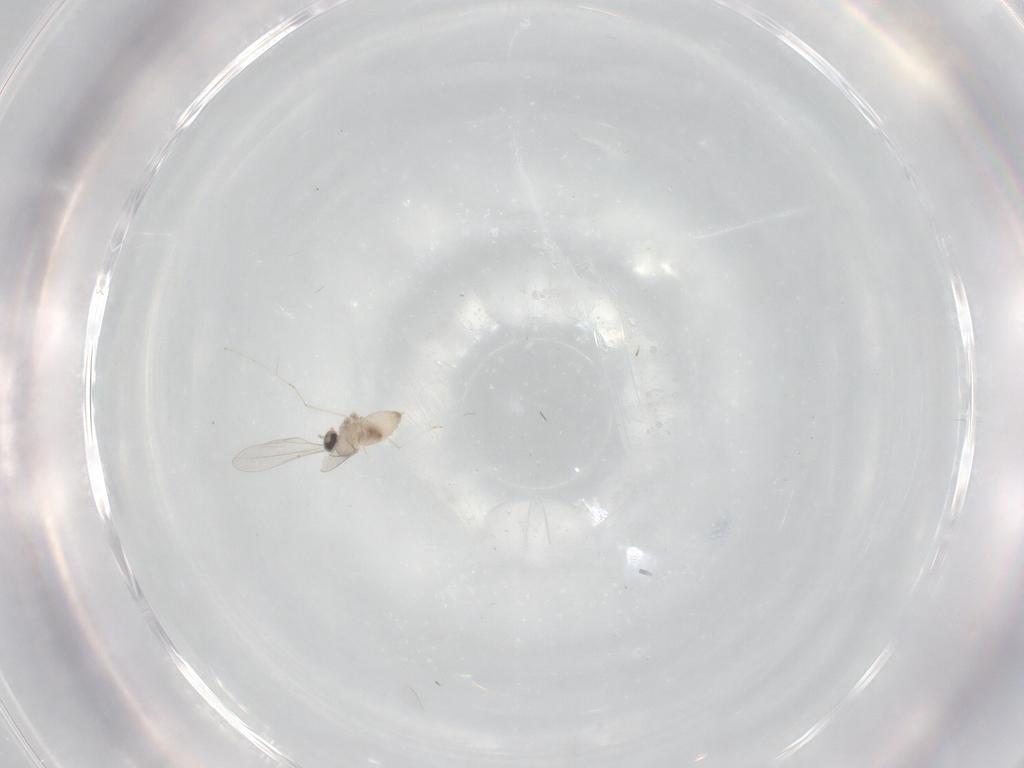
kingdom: Animalia
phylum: Arthropoda
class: Insecta
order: Diptera
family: Cecidomyiidae
